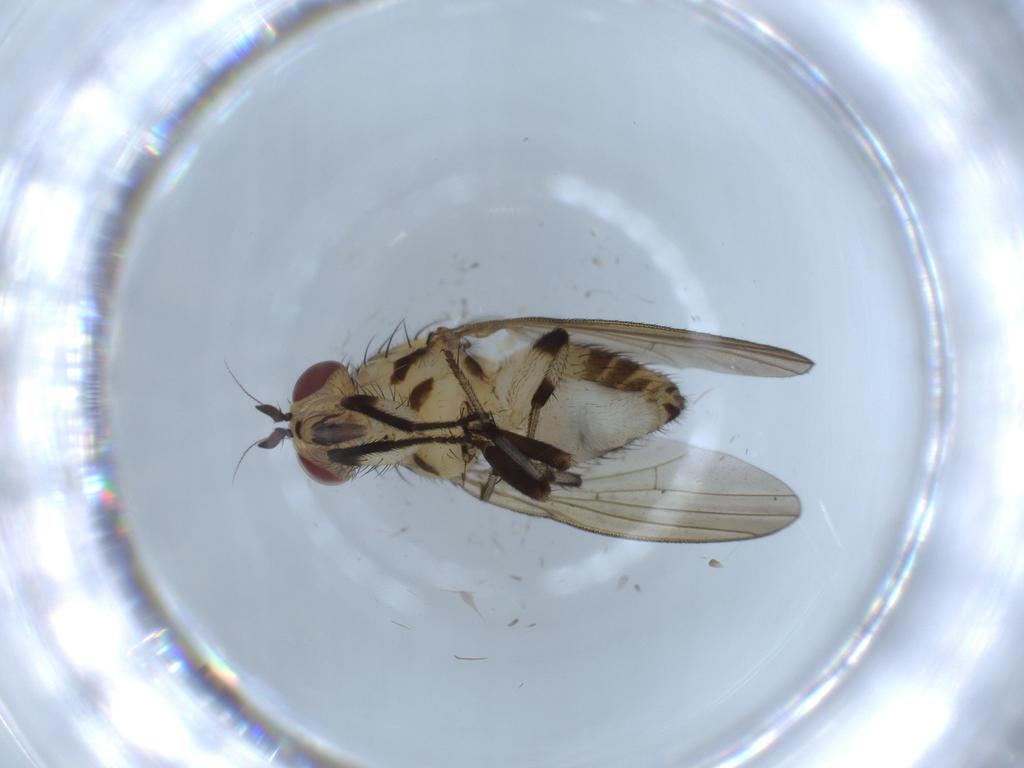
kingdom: Animalia
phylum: Arthropoda
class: Insecta
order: Diptera
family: Lauxaniidae
